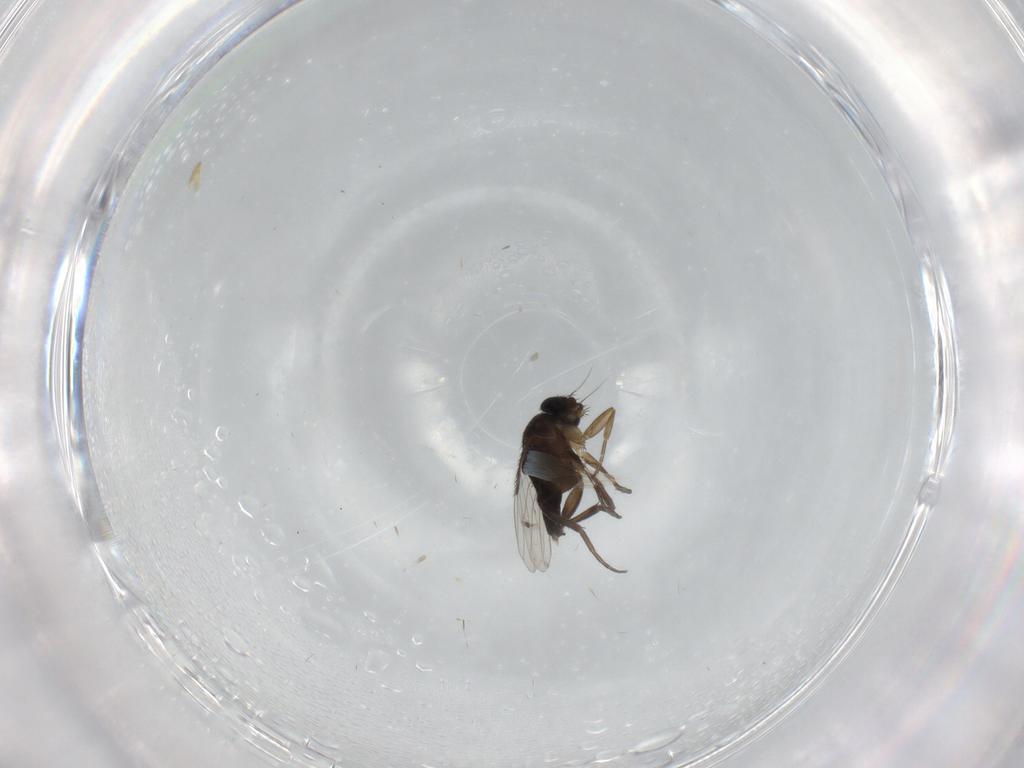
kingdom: Animalia
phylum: Arthropoda
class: Insecta
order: Diptera
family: Phoridae
